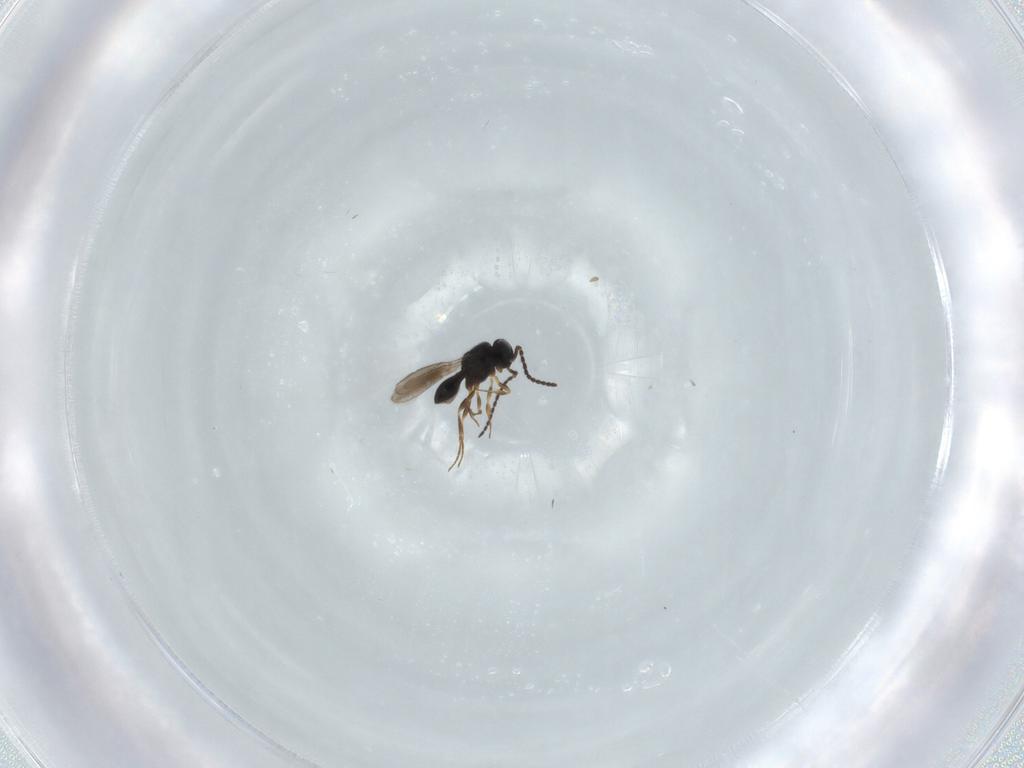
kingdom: Animalia
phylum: Arthropoda
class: Insecta
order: Hymenoptera
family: Scelionidae
